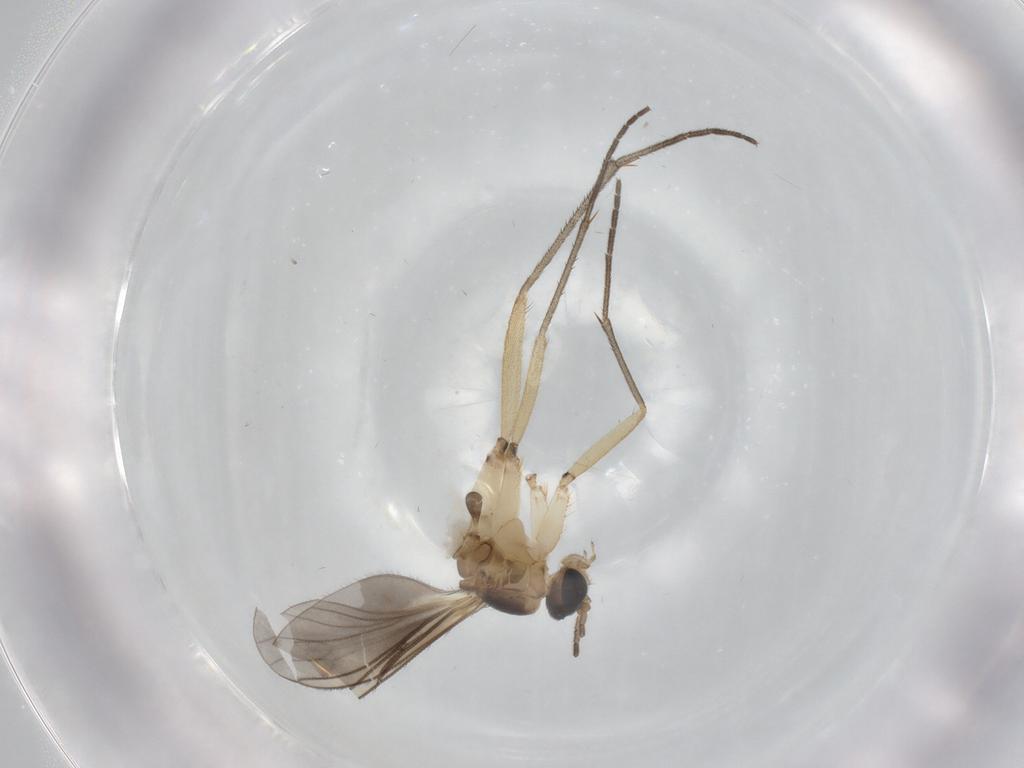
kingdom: Animalia
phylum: Arthropoda
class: Insecta
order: Diptera
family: Sciaridae
